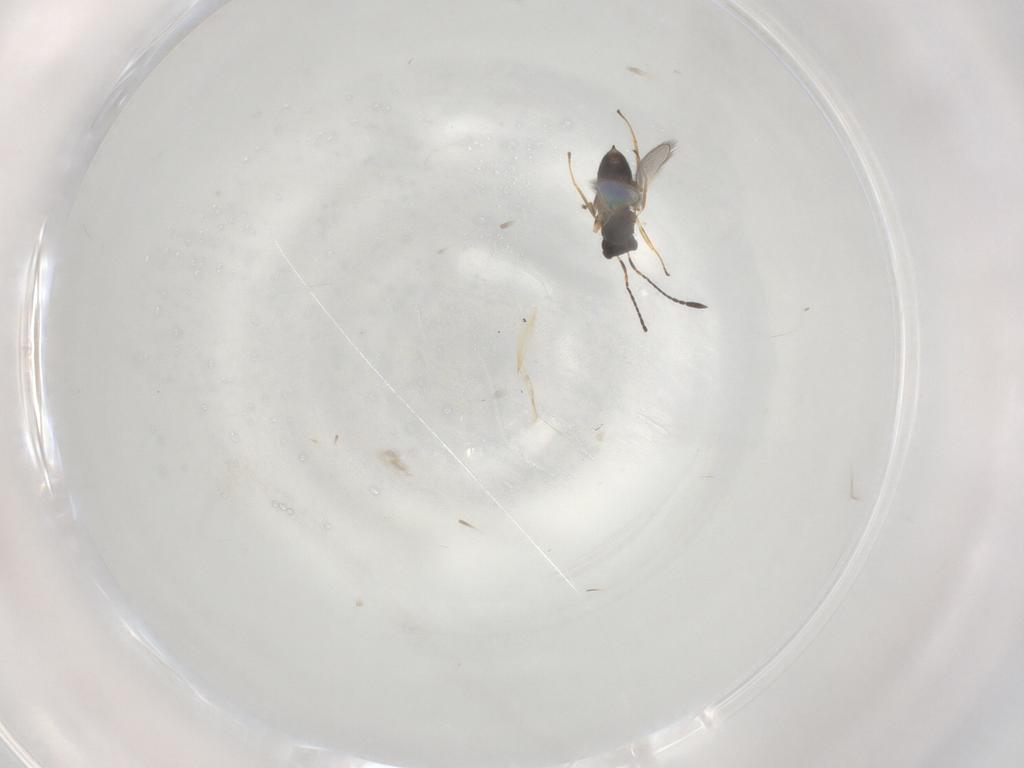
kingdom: Animalia
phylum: Arthropoda
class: Insecta
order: Hymenoptera
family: Mymaridae
